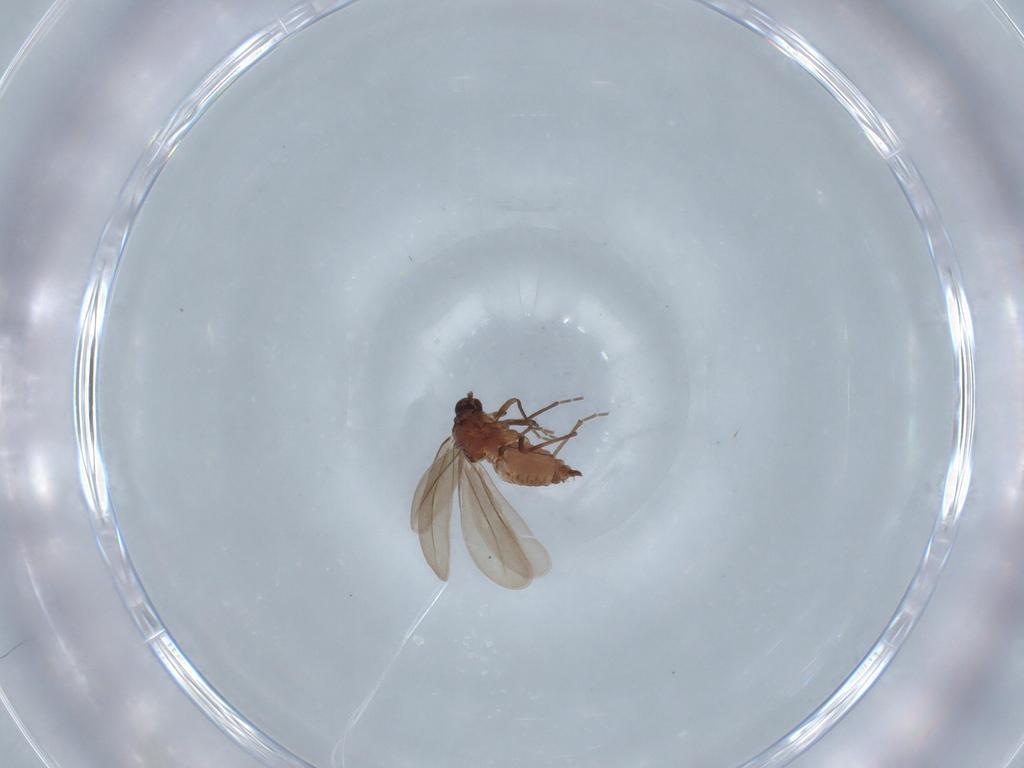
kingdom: Animalia
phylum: Arthropoda
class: Insecta
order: Hemiptera
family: Aleyrodidae
